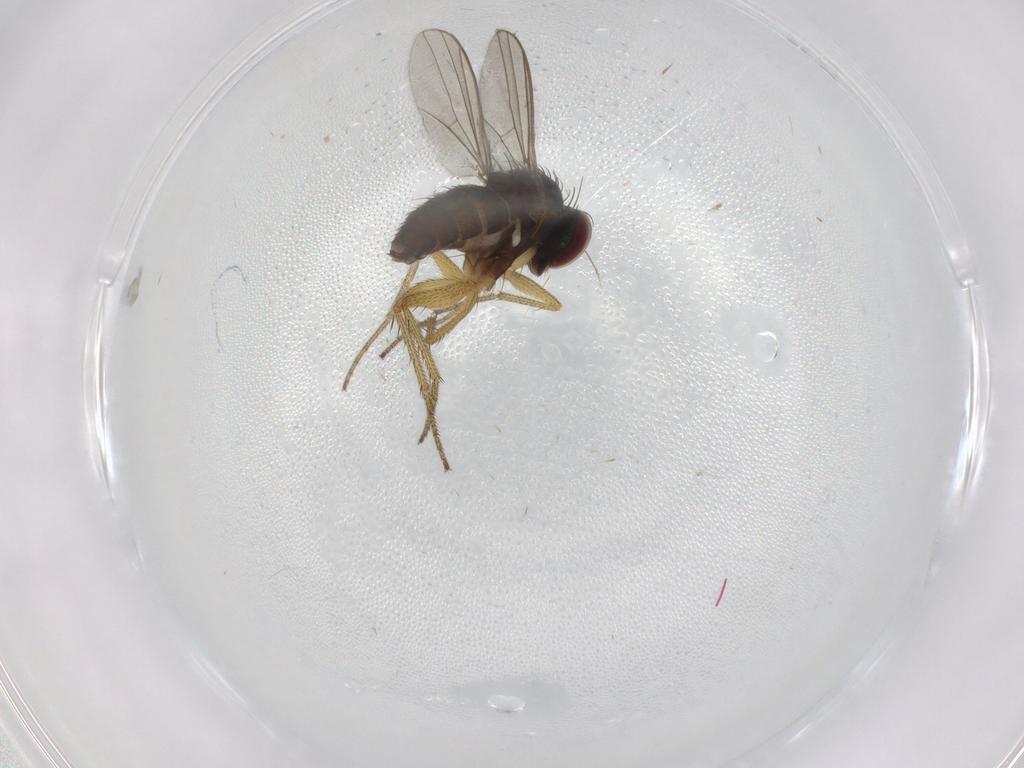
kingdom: Animalia
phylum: Arthropoda
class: Insecta
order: Diptera
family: Dolichopodidae
